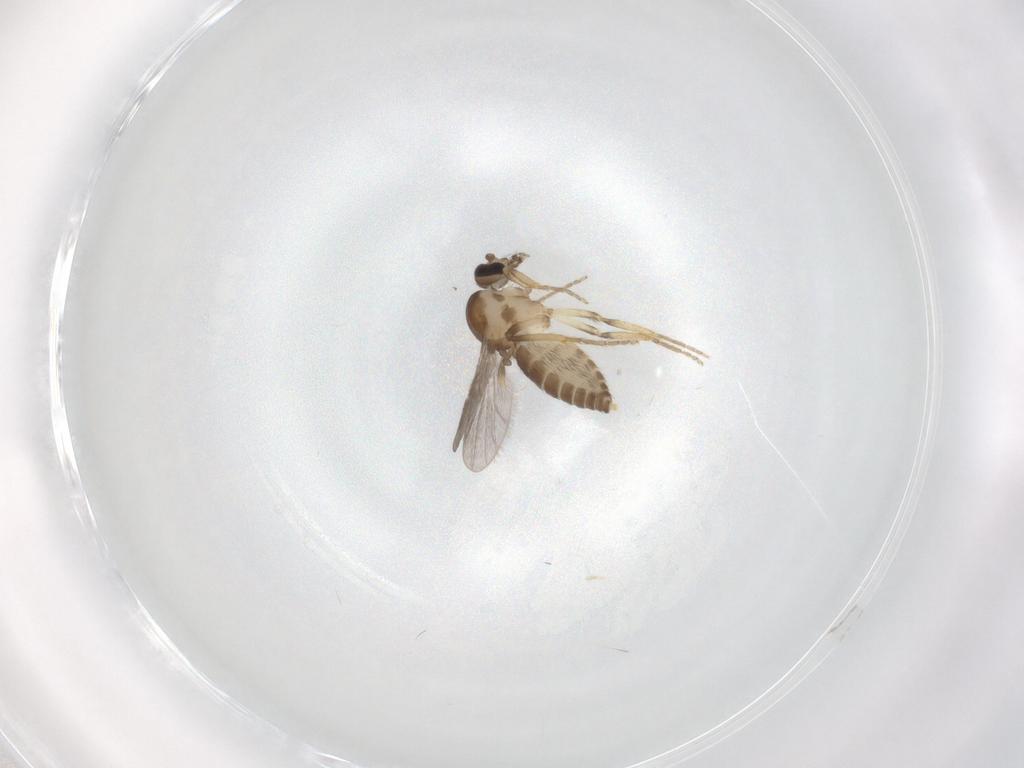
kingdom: Animalia
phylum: Arthropoda
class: Insecta
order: Diptera
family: Ceratopogonidae
